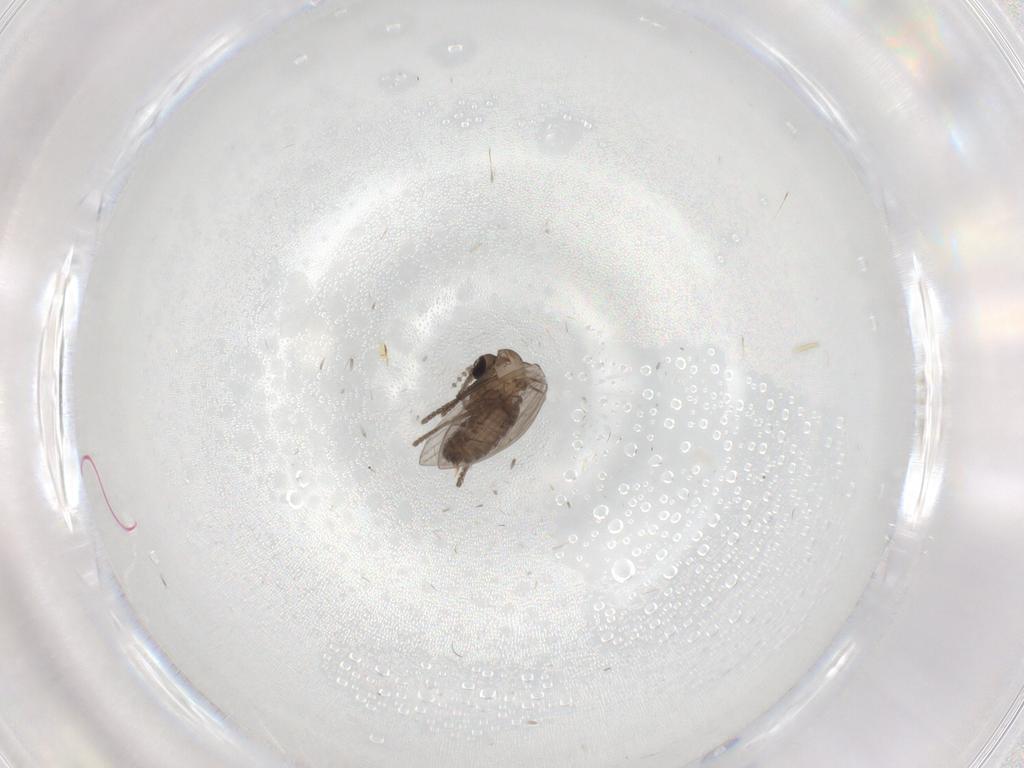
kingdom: Animalia
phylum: Arthropoda
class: Insecta
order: Diptera
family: Psychodidae
